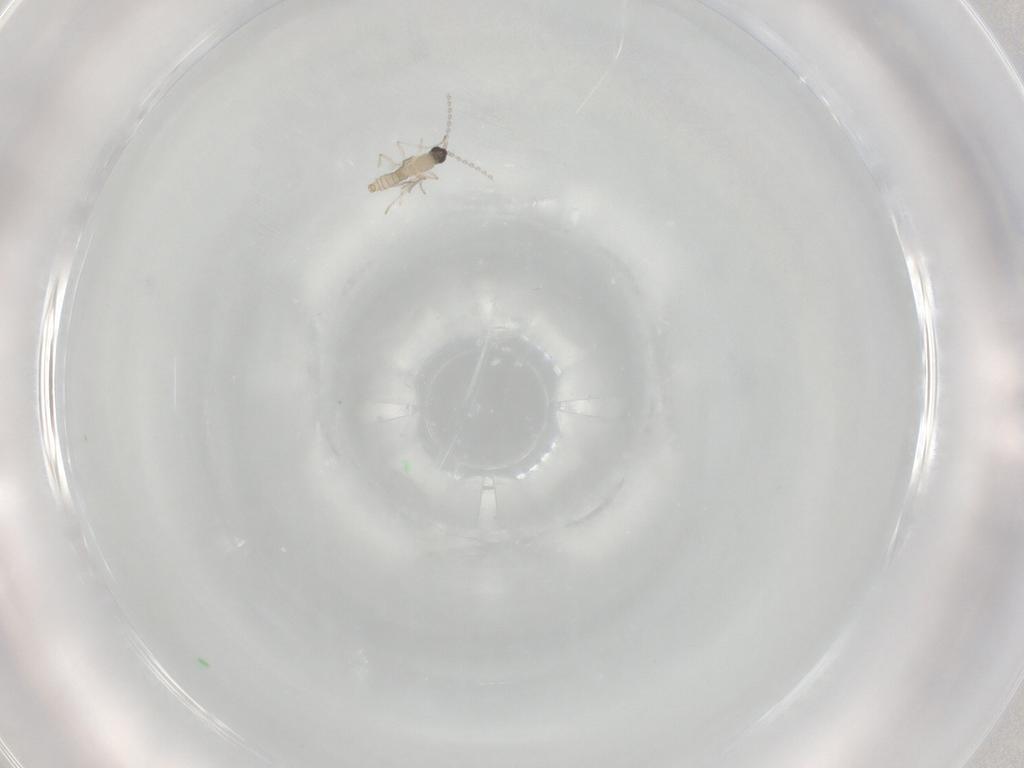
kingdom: Animalia
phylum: Arthropoda
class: Insecta
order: Diptera
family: Cecidomyiidae
